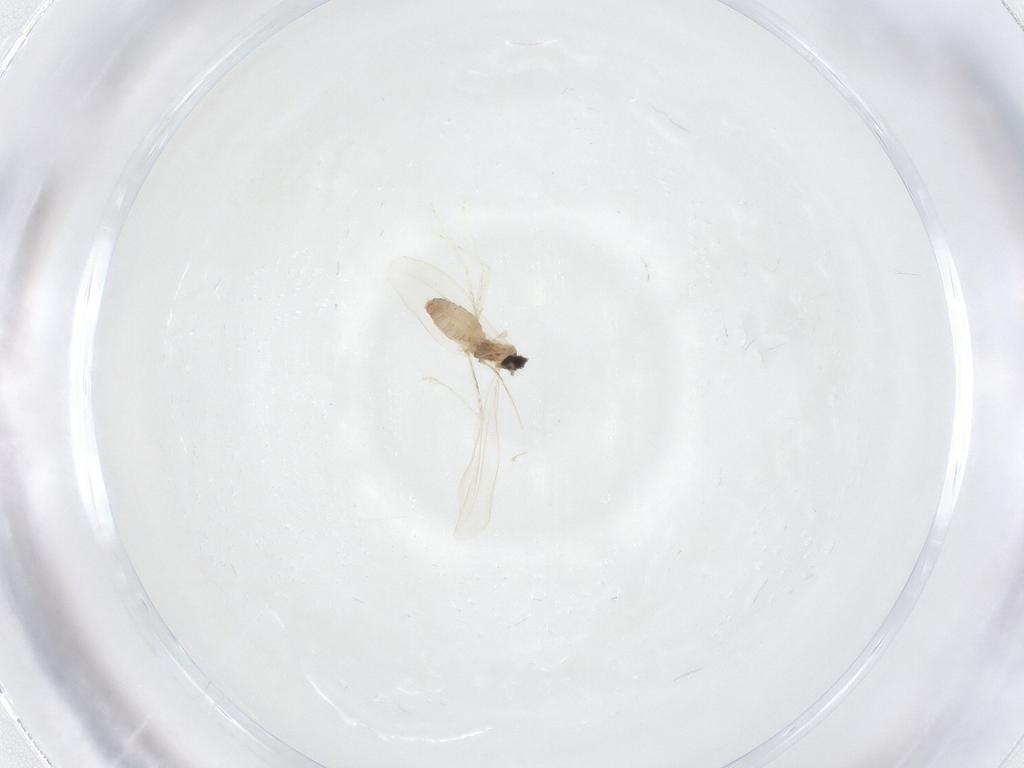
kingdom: Animalia
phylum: Arthropoda
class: Insecta
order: Diptera
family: Cecidomyiidae
